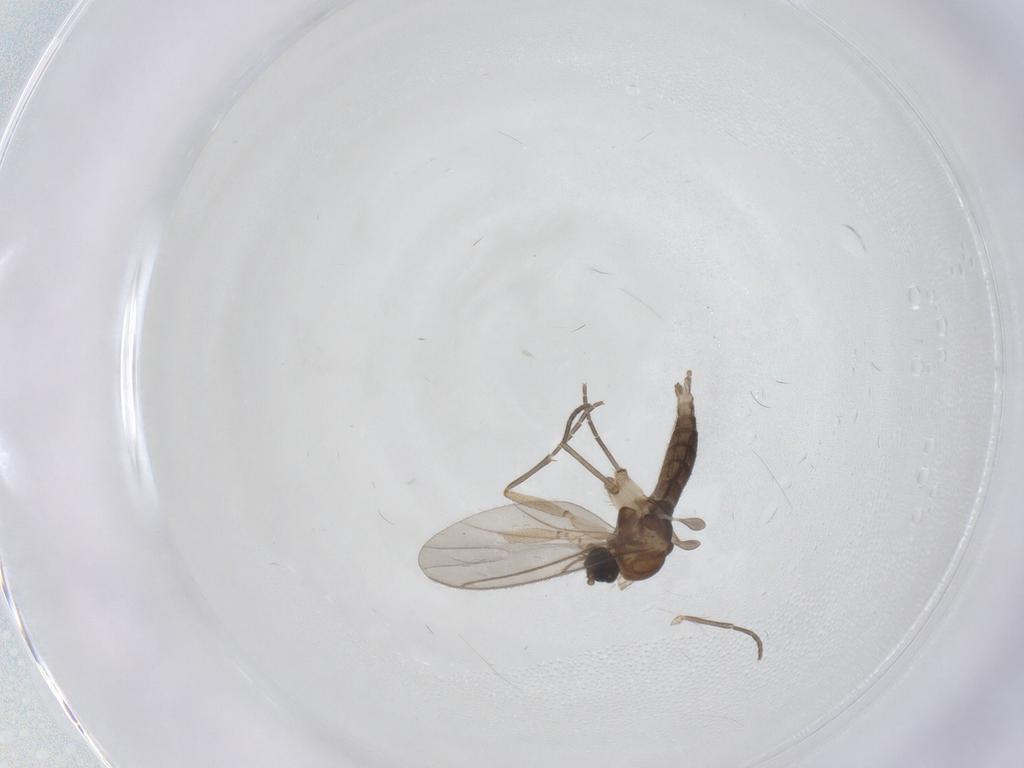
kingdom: Animalia
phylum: Arthropoda
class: Insecta
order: Diptera
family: Sciaridae
